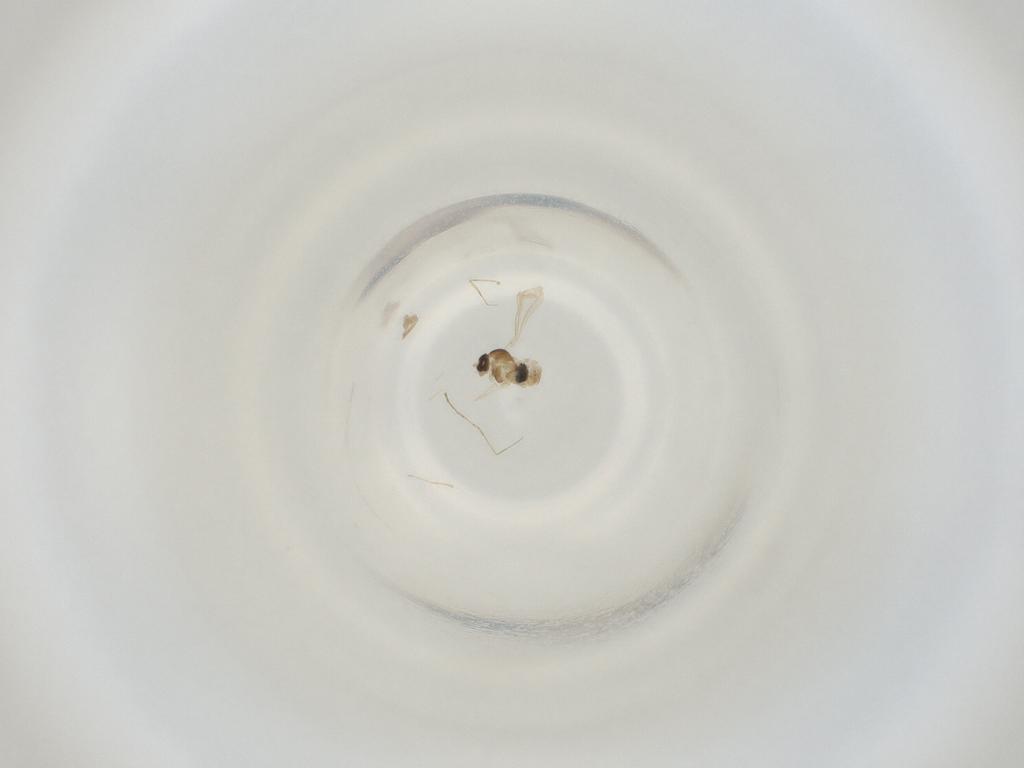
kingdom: Animalia
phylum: Arthropoda
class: Insecta
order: Diptera
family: Cecidomyiidae
